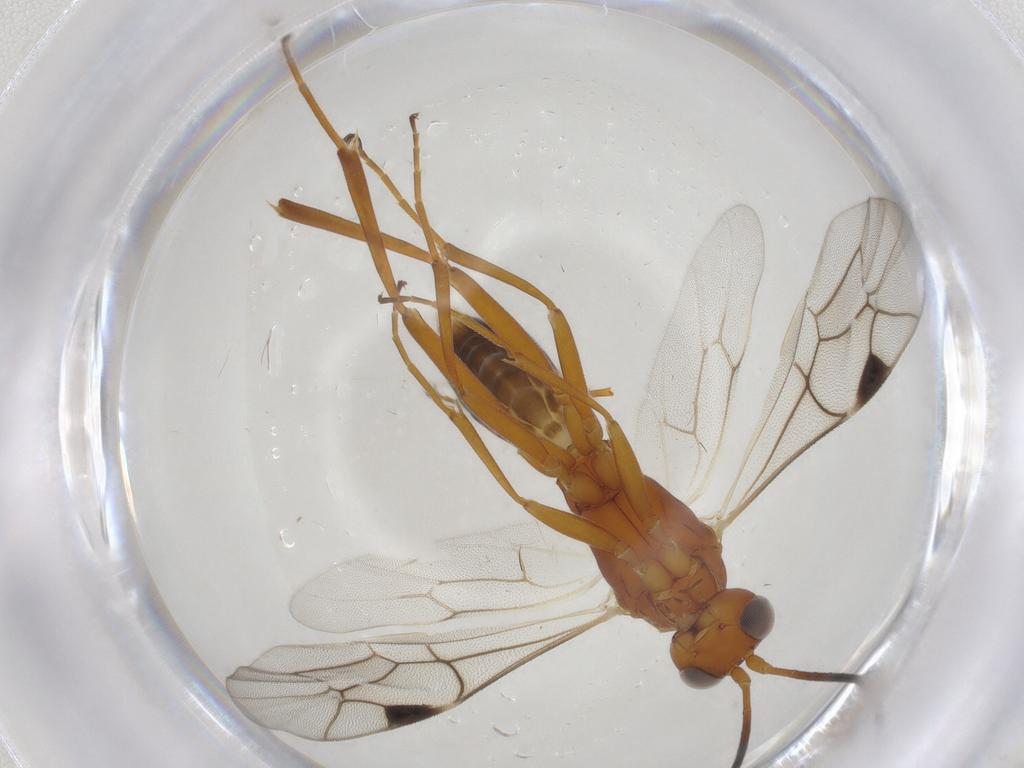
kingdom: Animalia
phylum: Arthropoda
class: Insecta
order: Hymenoptera
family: Ichneumonidae
